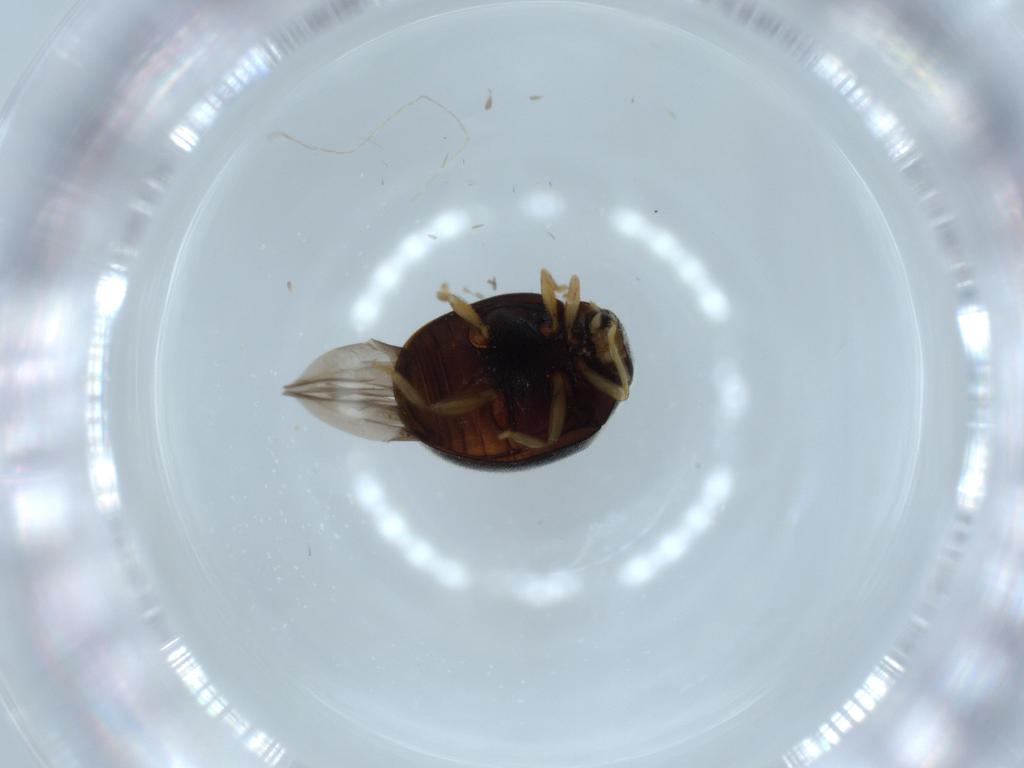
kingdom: Animalia
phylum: Arthropoda
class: Insecta
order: Coleoptera
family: Coccinellidae
